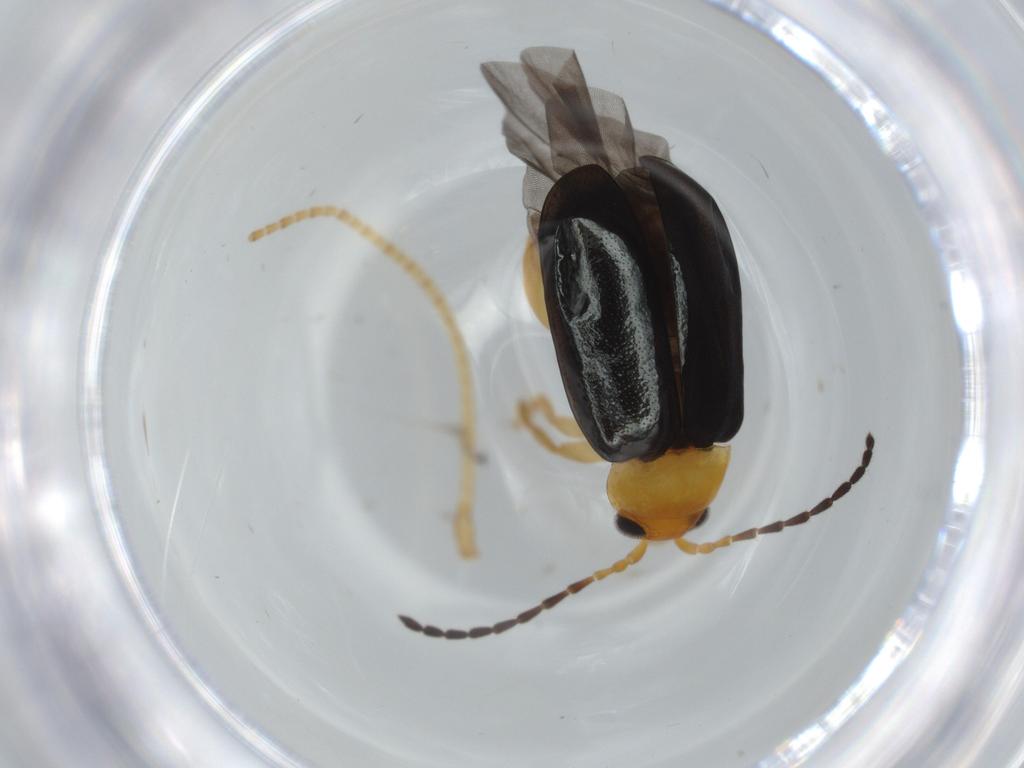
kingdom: Animalia
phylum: Arthropoda
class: Insecta
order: Coleoptera
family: Chrysomelidae
